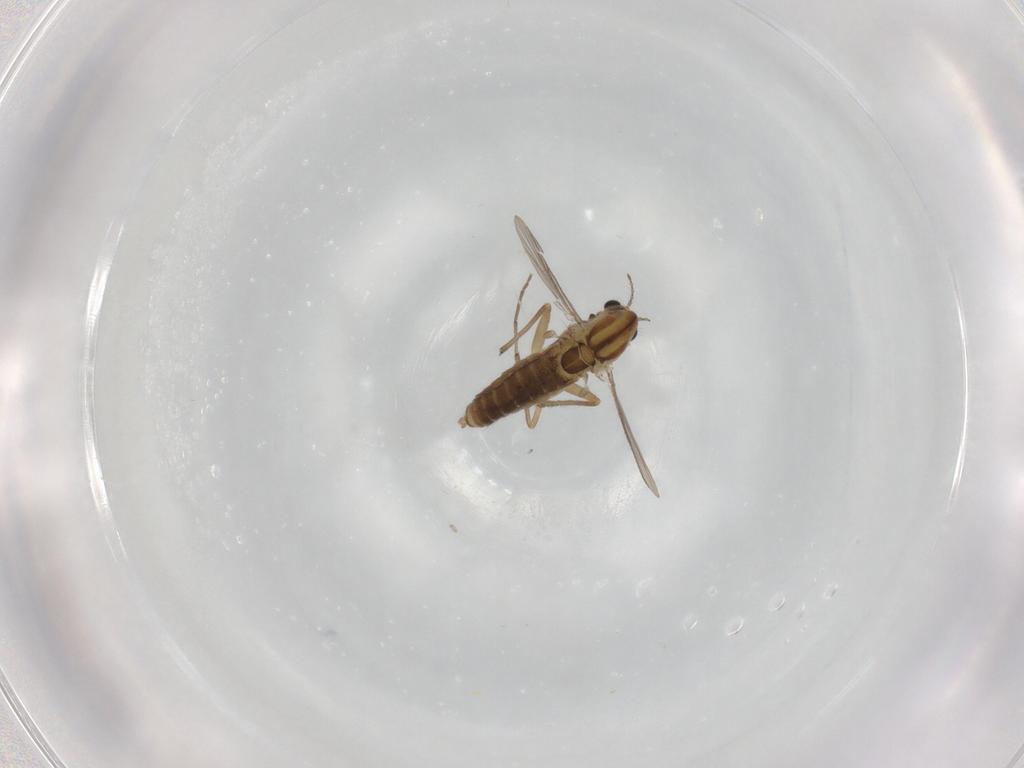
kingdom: Animalia
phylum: Arthropoda
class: Insecta
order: Diptera
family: Chironomidae
